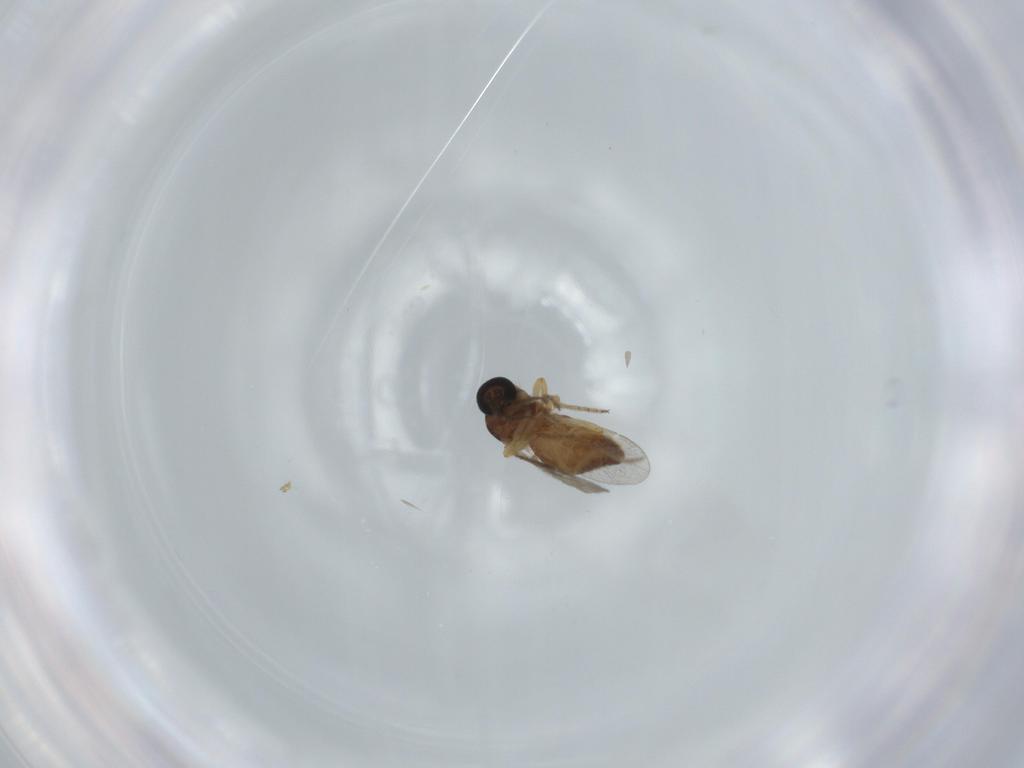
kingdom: Animalia
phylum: Arthropoda
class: Insecta
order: Diptera
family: Ceratopogonidae
